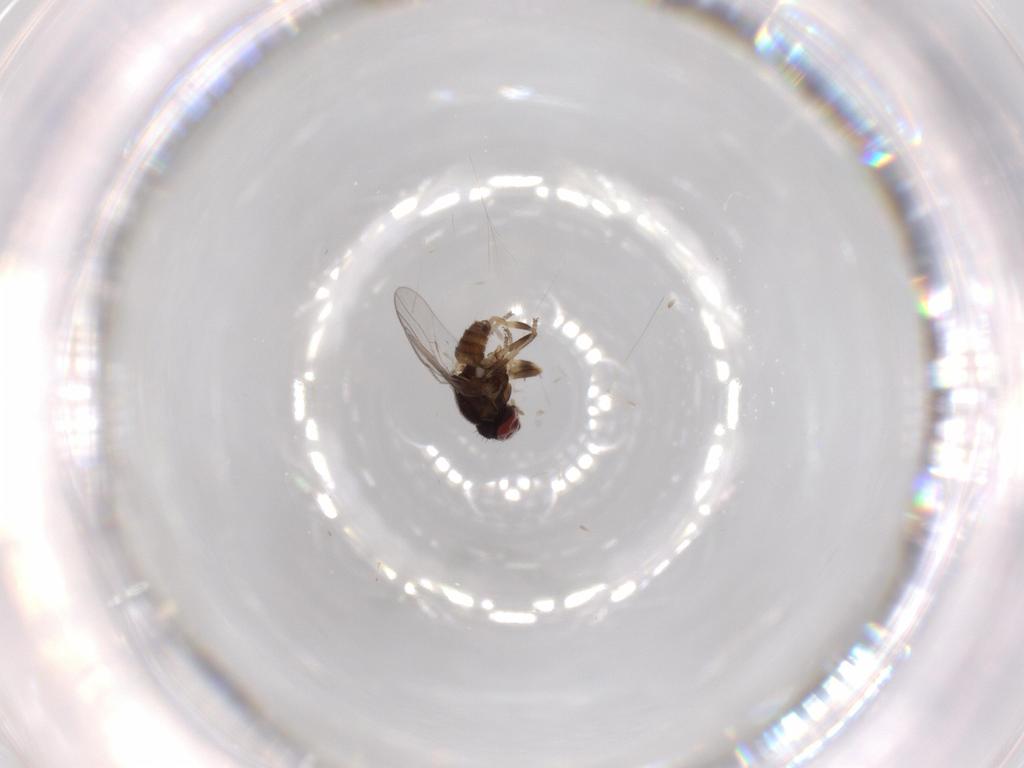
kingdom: Animalia
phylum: Arthropoda
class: Insecta
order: Diptera
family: Chloropidae
